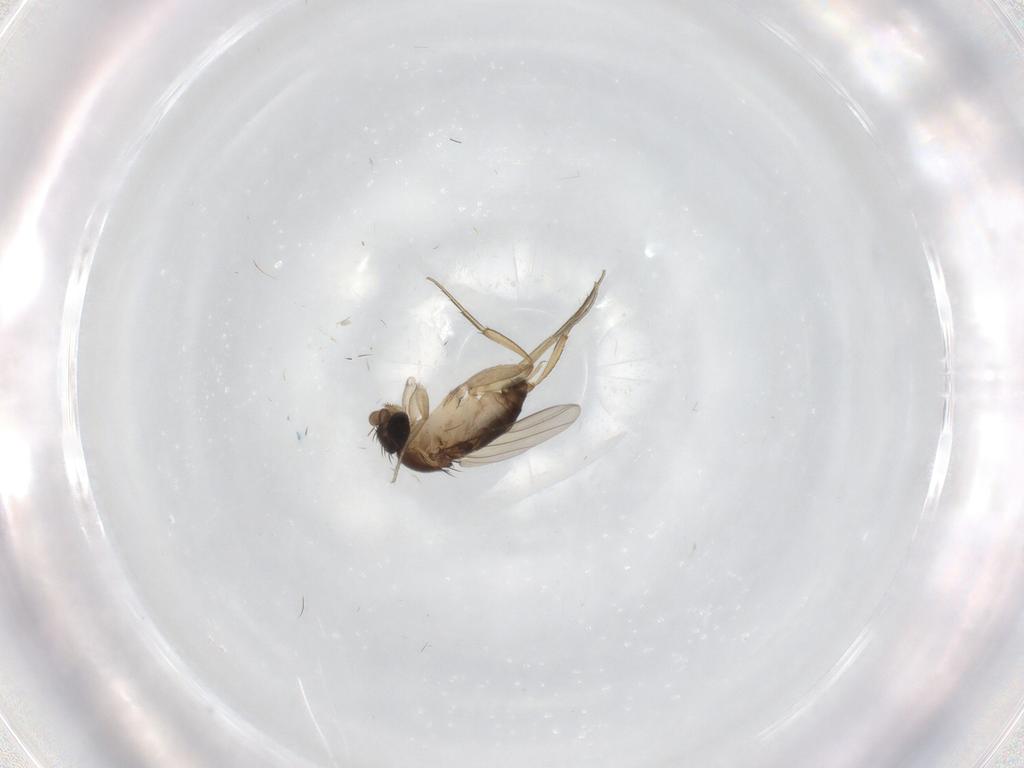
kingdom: Animalia
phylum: Arthropoda
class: Insecta
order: Diptera
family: Phoridae
